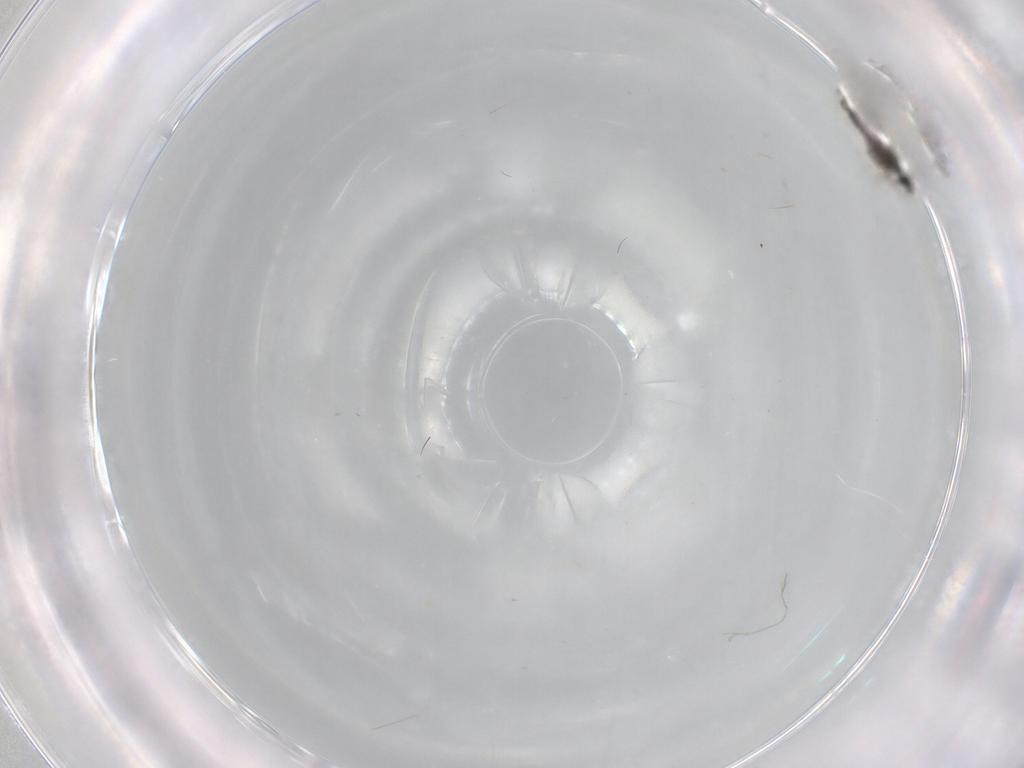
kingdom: Animalia
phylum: Arthropoda
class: Insecta
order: Diptera
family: Cecidomyiidae
